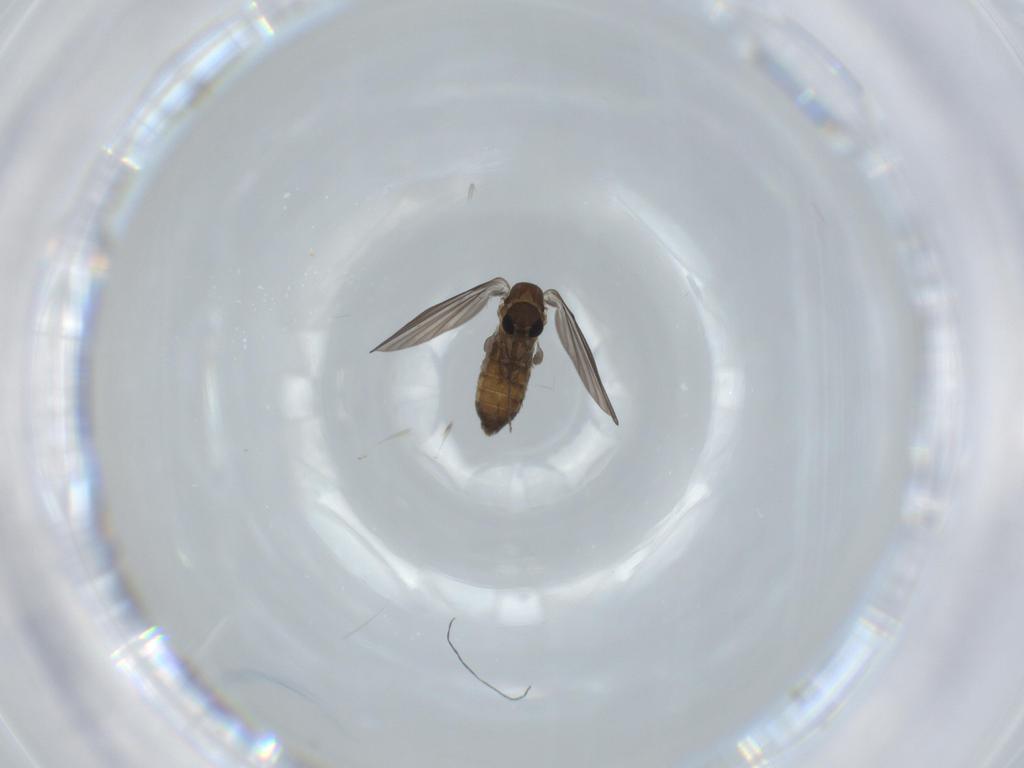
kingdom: Animalia
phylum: Arthropoda
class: Insecta
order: Diptera
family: Psychodidae
